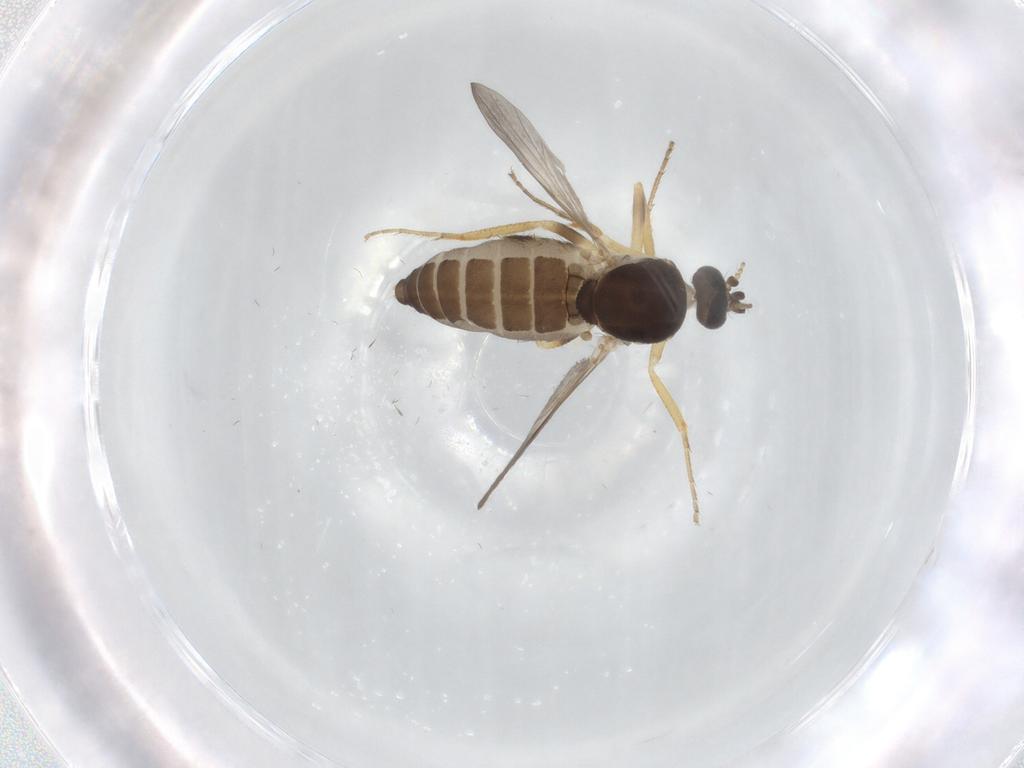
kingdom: Animalia
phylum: Arthropoda
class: Insecta
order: Diptera
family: Ceratopogonidae
